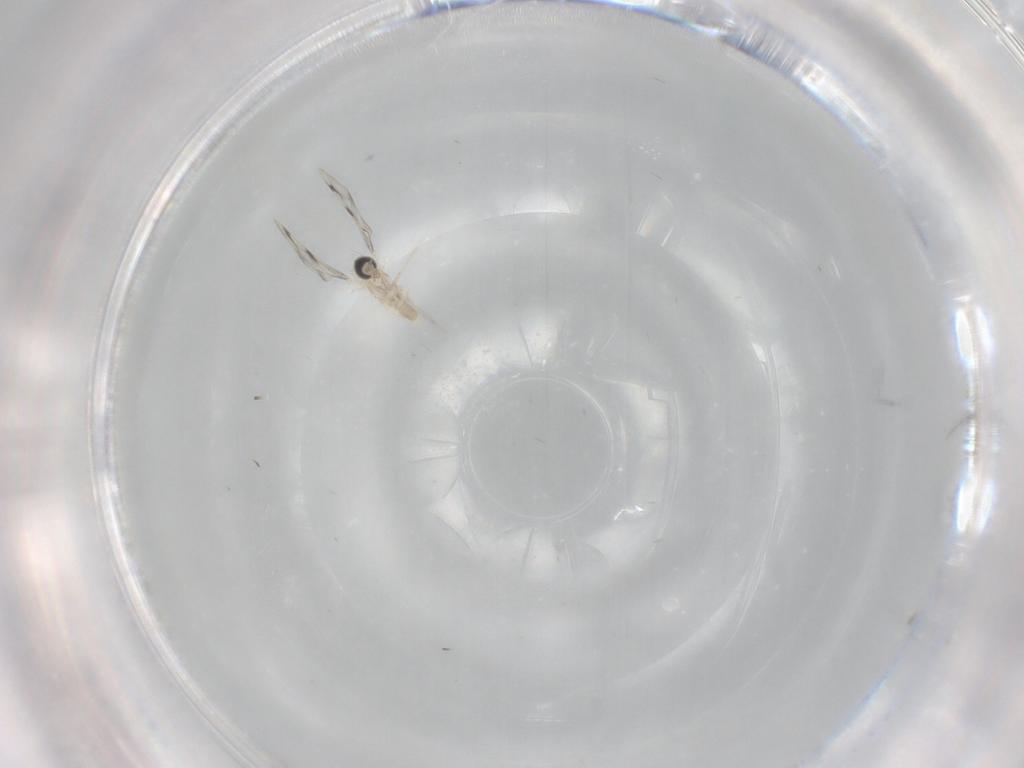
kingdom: Animalia
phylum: Arthropoda
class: Insecta
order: Diptera
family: Cecidomyiidae
